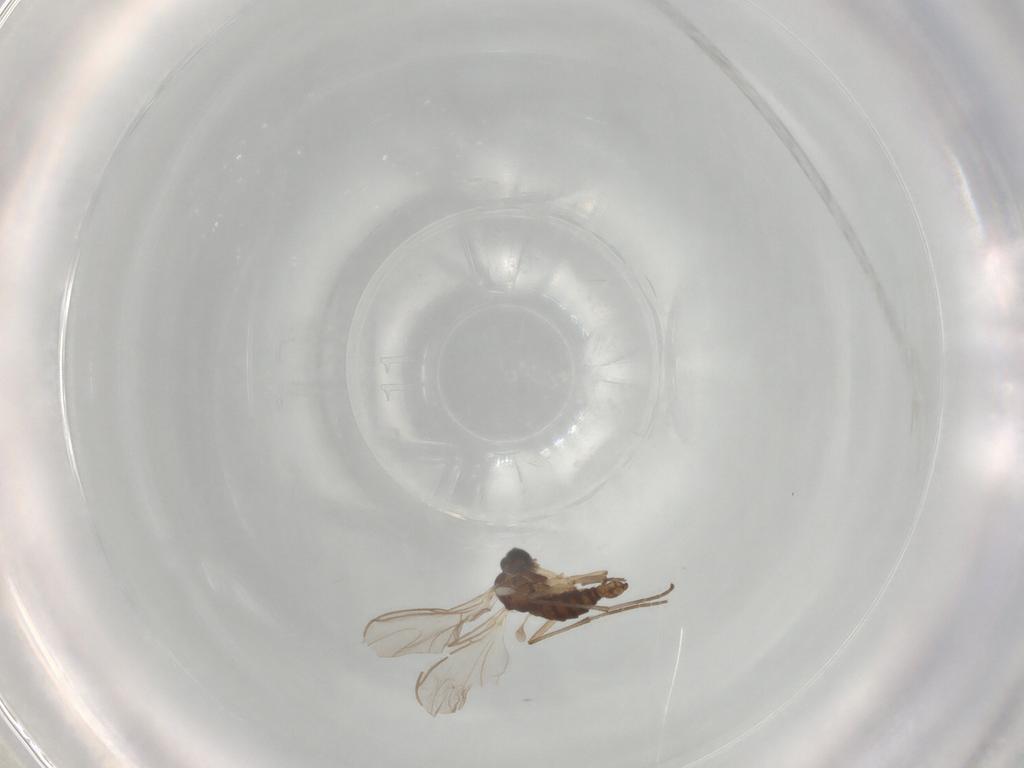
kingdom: Animalia
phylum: Arthropoda
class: Insecta
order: Diptera
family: Sciaridae
